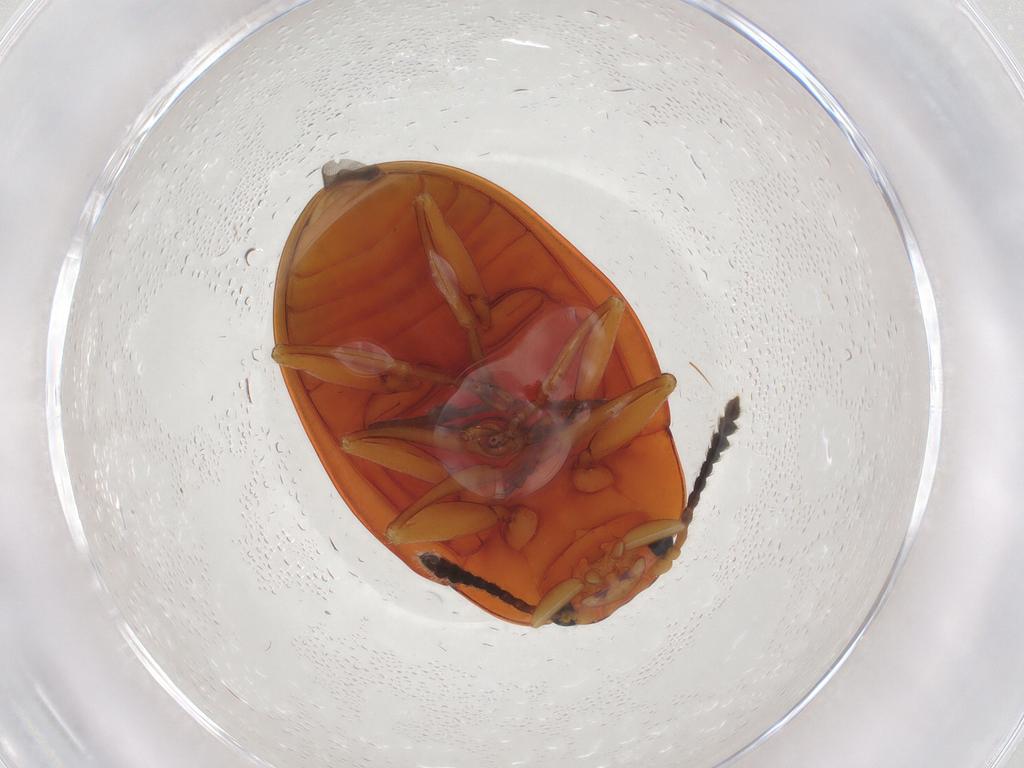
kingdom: Animalia
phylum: Arthropoda
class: Insecta
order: Coleoptera
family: Erotylidae
